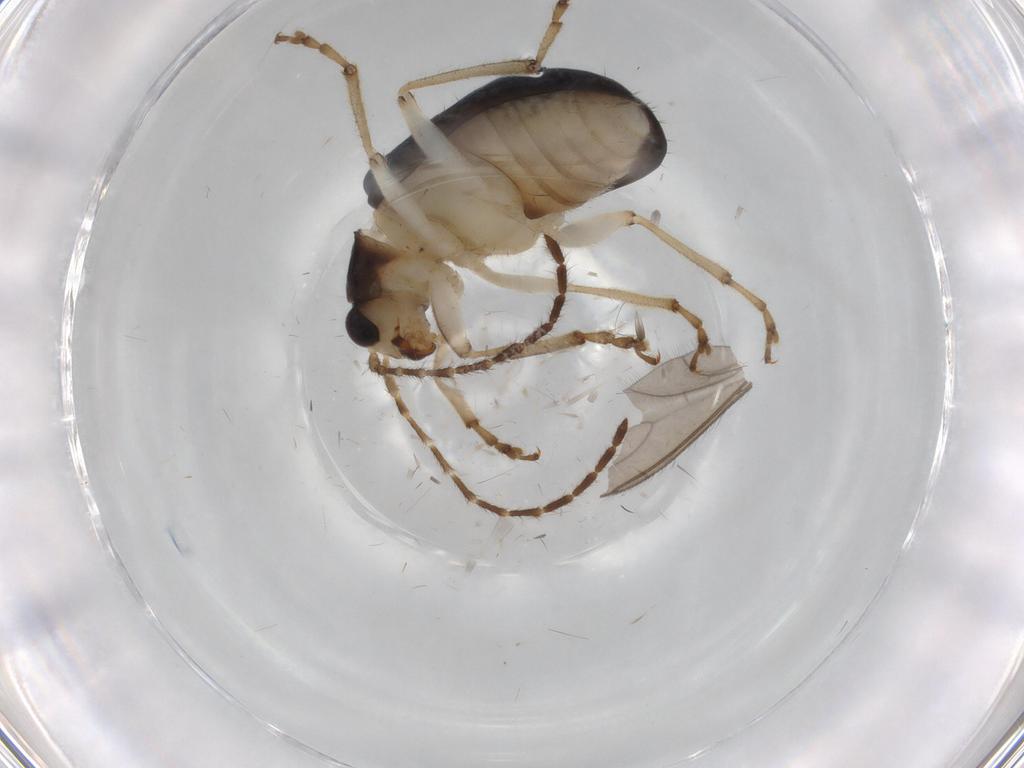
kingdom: Animalia
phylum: Arthropoda
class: Insecta
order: Coleoptera
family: Chrysomelidae
